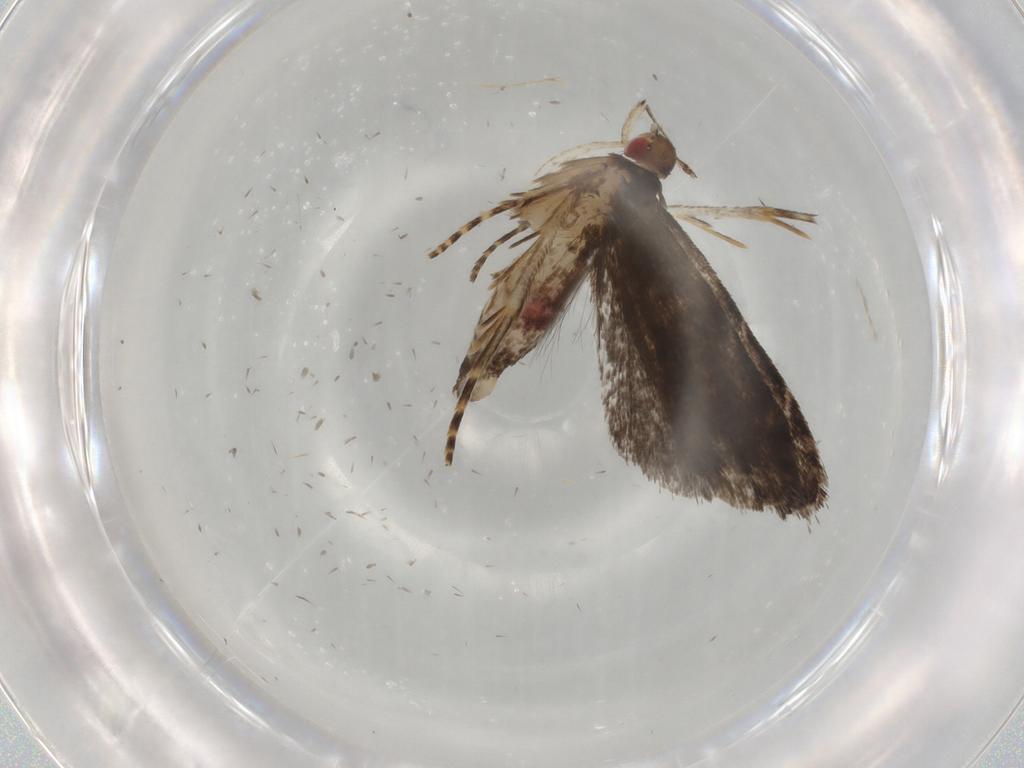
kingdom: Animalia
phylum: Arthropoda
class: Insecta
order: Lepidoptera
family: Gelechiidae
